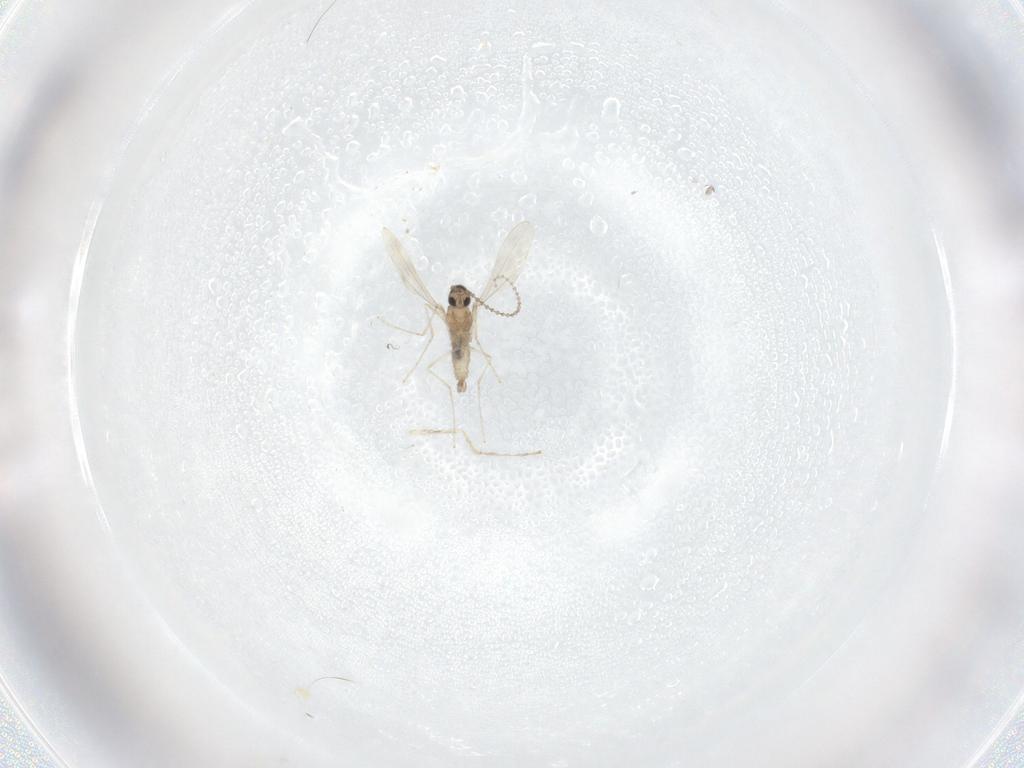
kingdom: Animalia
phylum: Arthropoda
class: Insecta
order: Diptera
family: Cecidomyiidae
